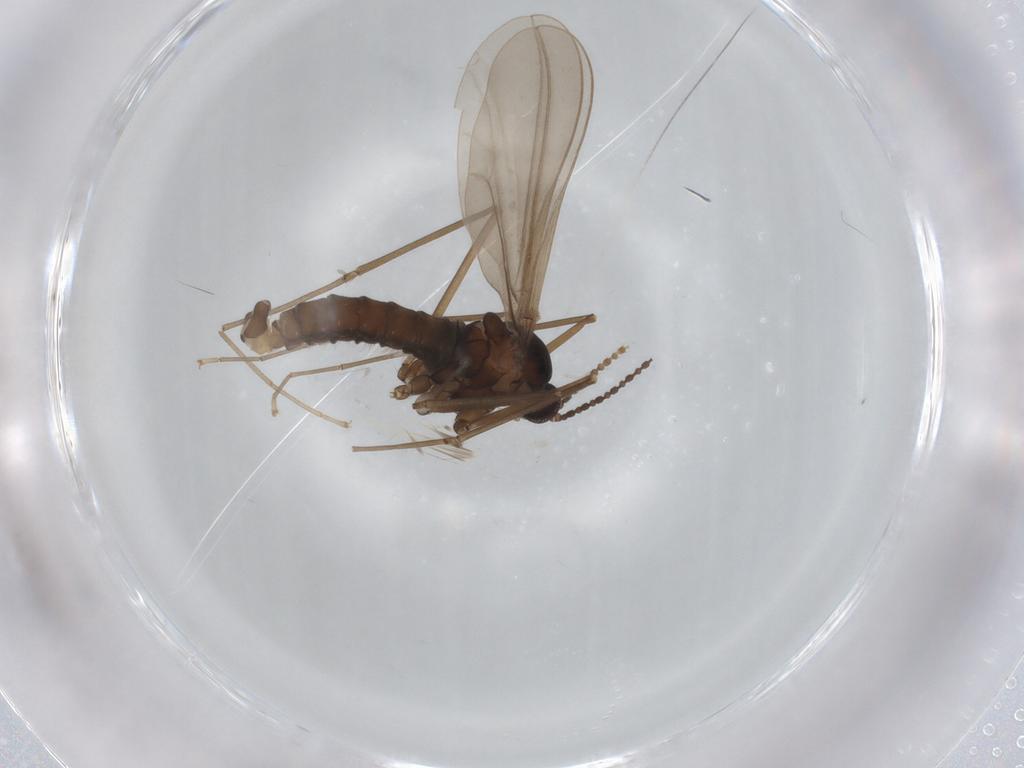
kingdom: Animalia
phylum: Arthropoda
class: Insecta
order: Diptera
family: Cecidomyiidae
